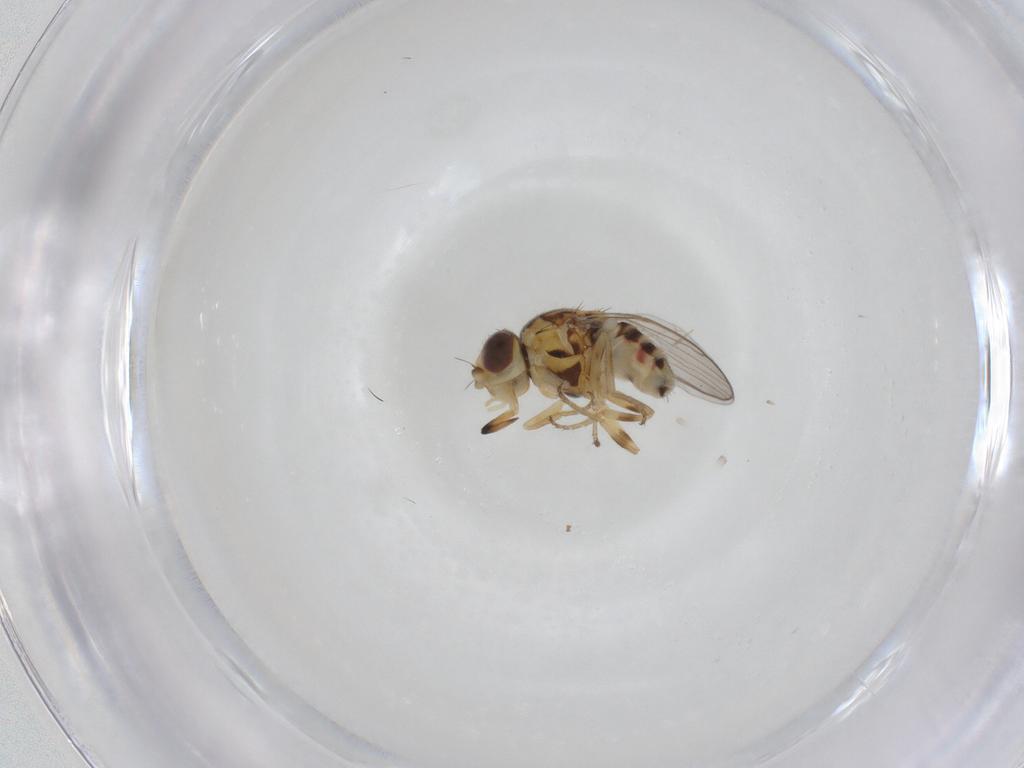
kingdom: Animalia
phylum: Arthropoda
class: Insecta
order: Diptera
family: Chloropidae
